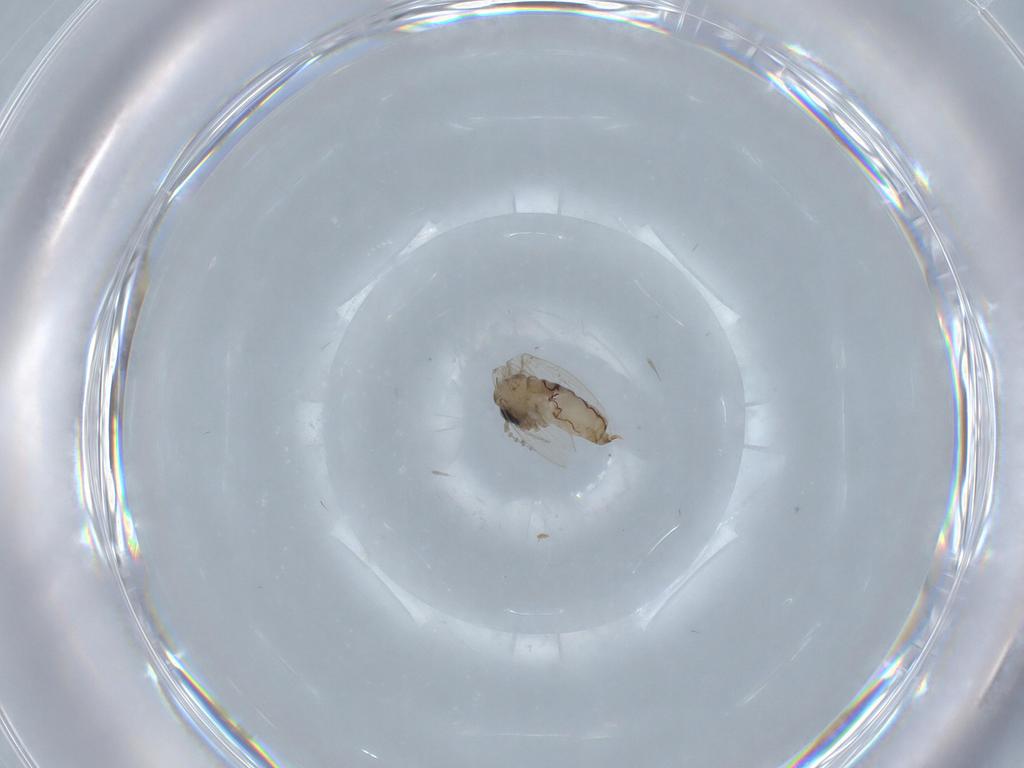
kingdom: Animalia
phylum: Arthropoda
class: Insecta
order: Diptera
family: Psychodidae
